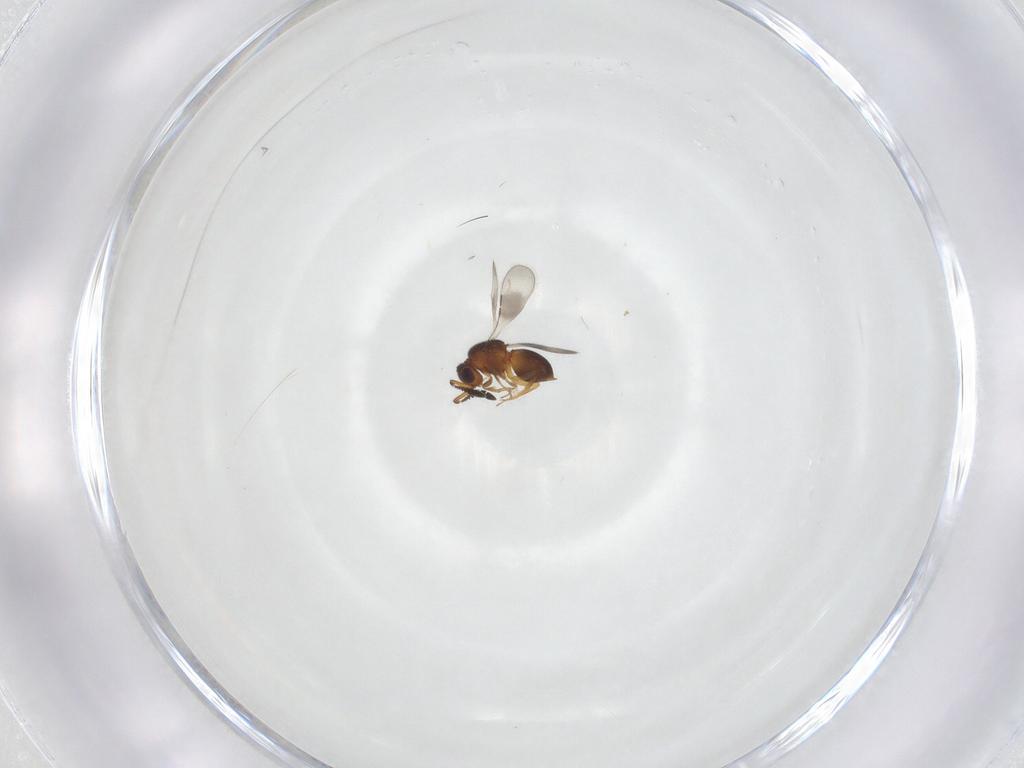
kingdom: Animalia
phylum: Arthropoda
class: Insecta
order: Hymenoptera
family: Ceraphronidae
